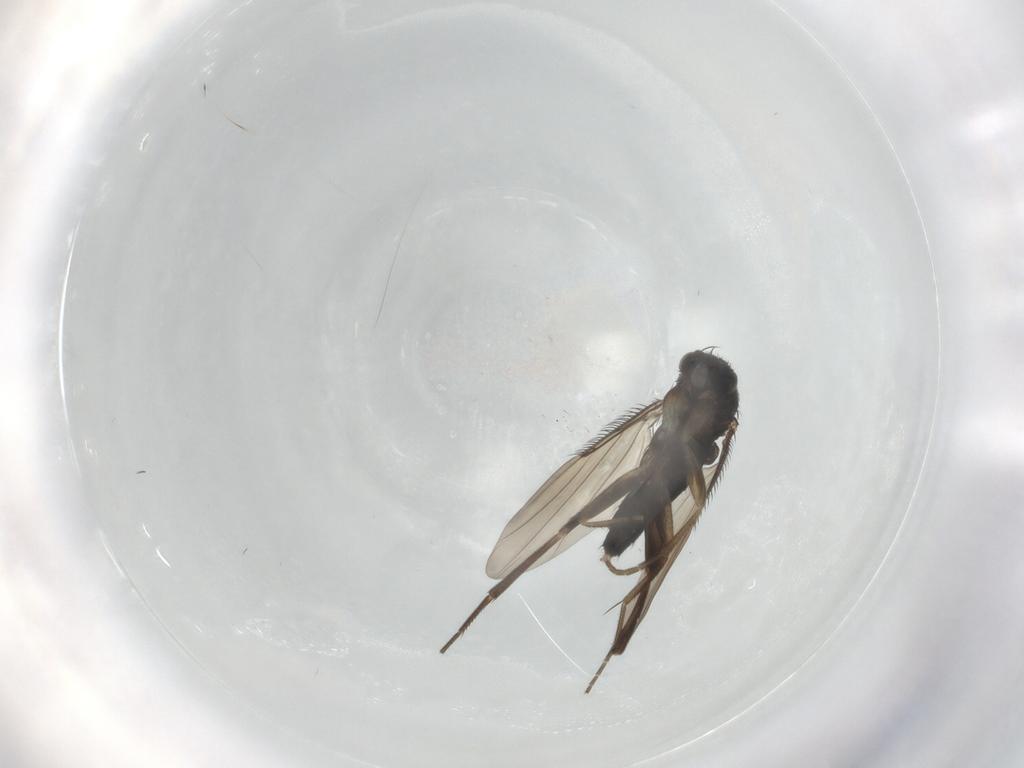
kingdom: Animalia
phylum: Arthropoda
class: Insecta
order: Diptera
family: Phoridae
